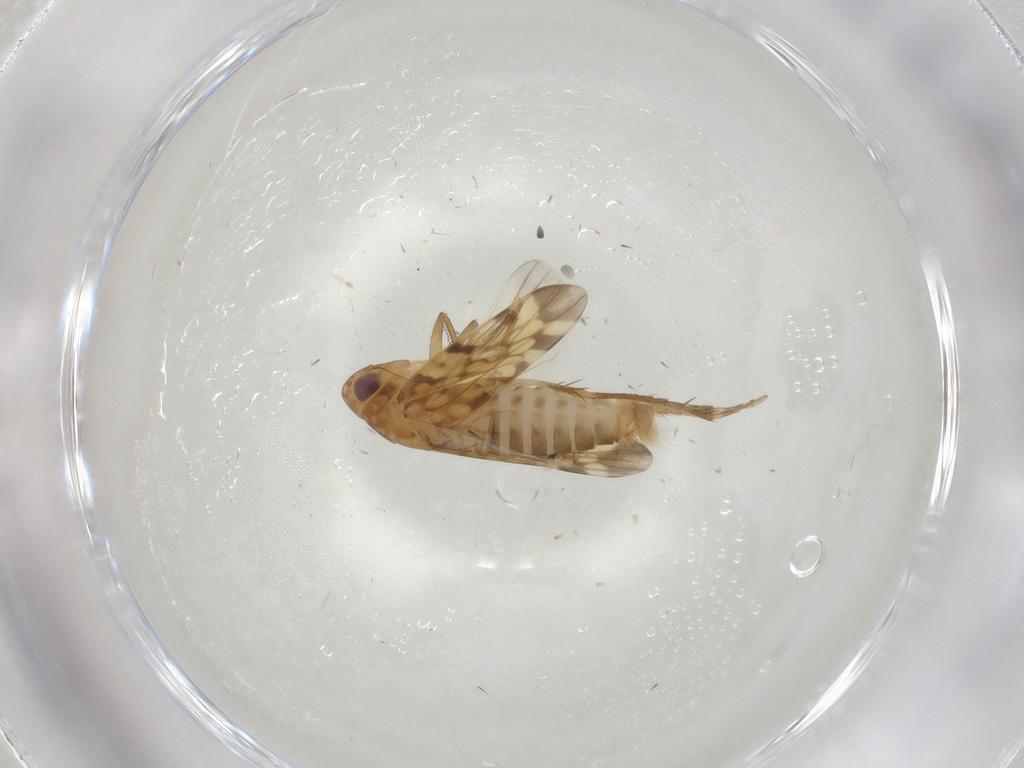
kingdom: Animalia
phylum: Arthropoda
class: Insecta
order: Hemiptera
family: Cicadellidae
